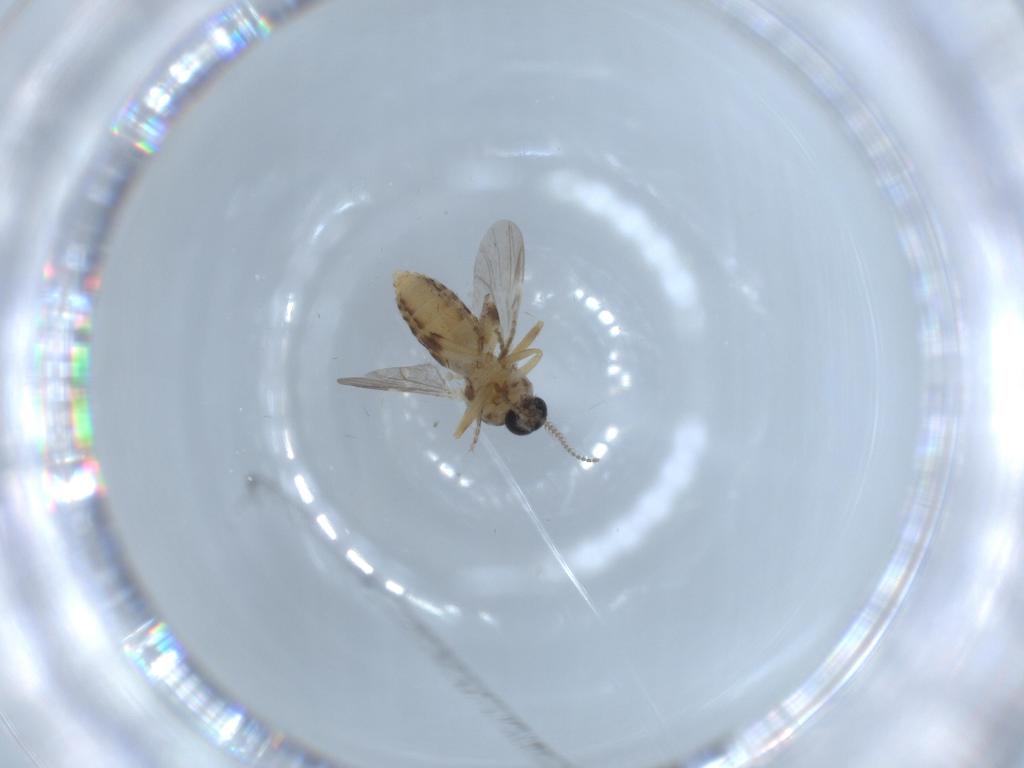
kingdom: Animalia
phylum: Arthropoda
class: Insecta
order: Diptera
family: Ceratopogonidae
